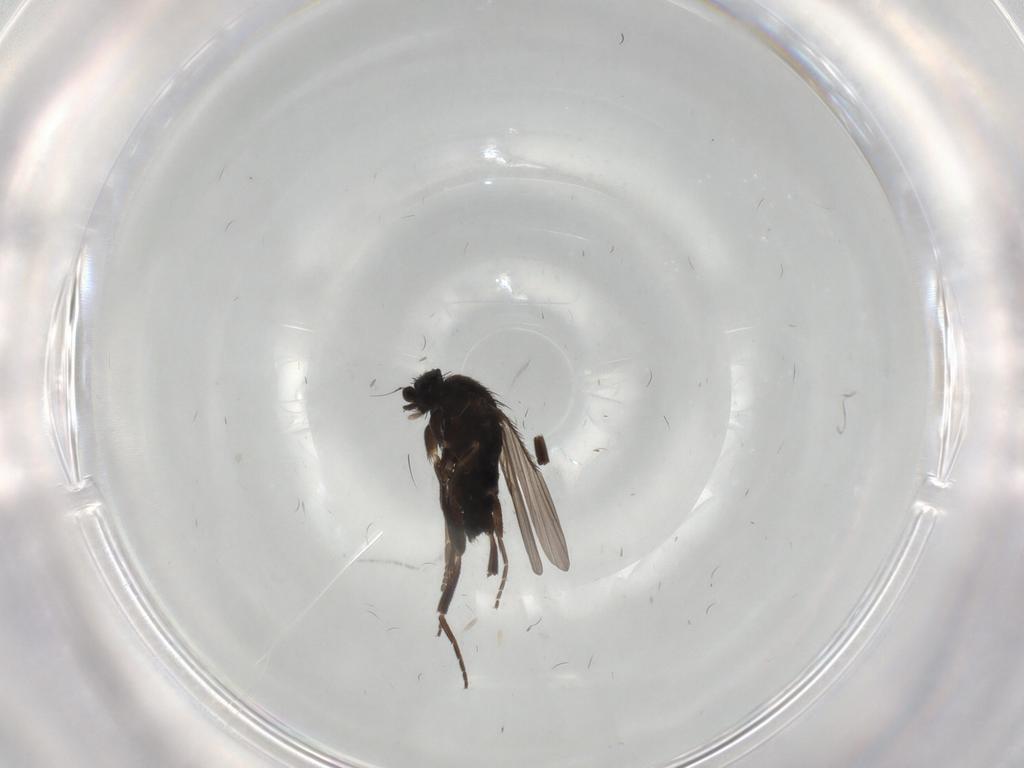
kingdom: Animalia
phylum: Arthropoda
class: Insecta
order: Diptera
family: Phoridae
